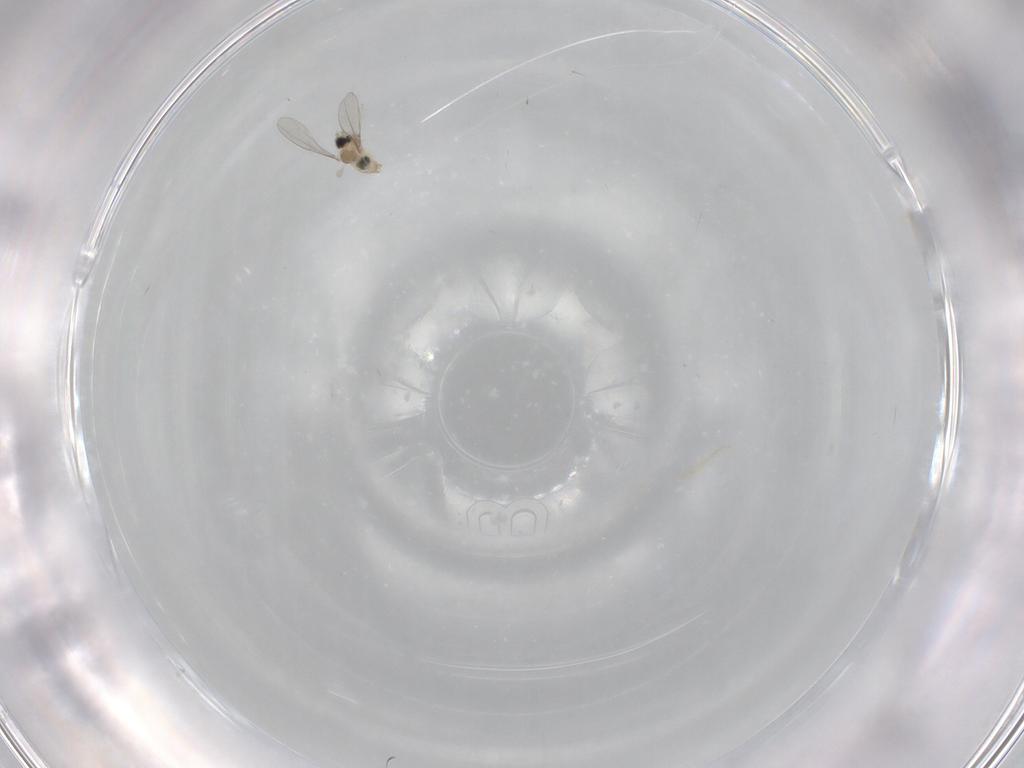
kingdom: Animalia
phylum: Arthropoda
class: Insecta
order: Diptera
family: Cecidomyiidae
